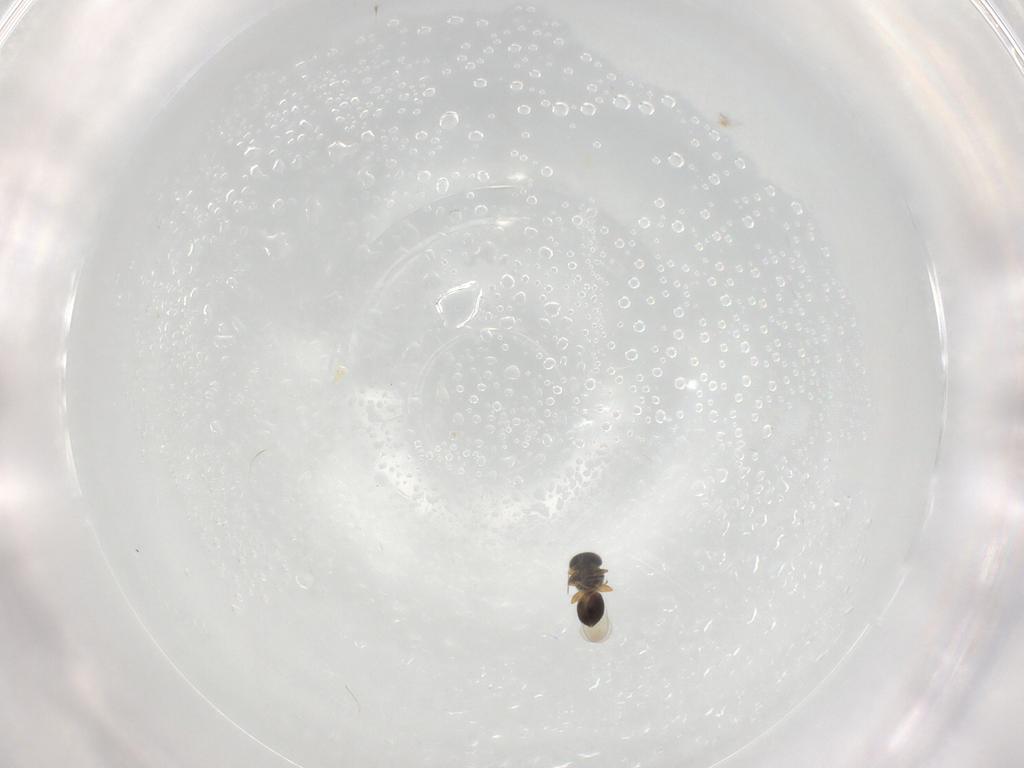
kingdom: Animalia
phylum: Arthropoda
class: Insecta
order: Hymenoptera
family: Platygastridae
